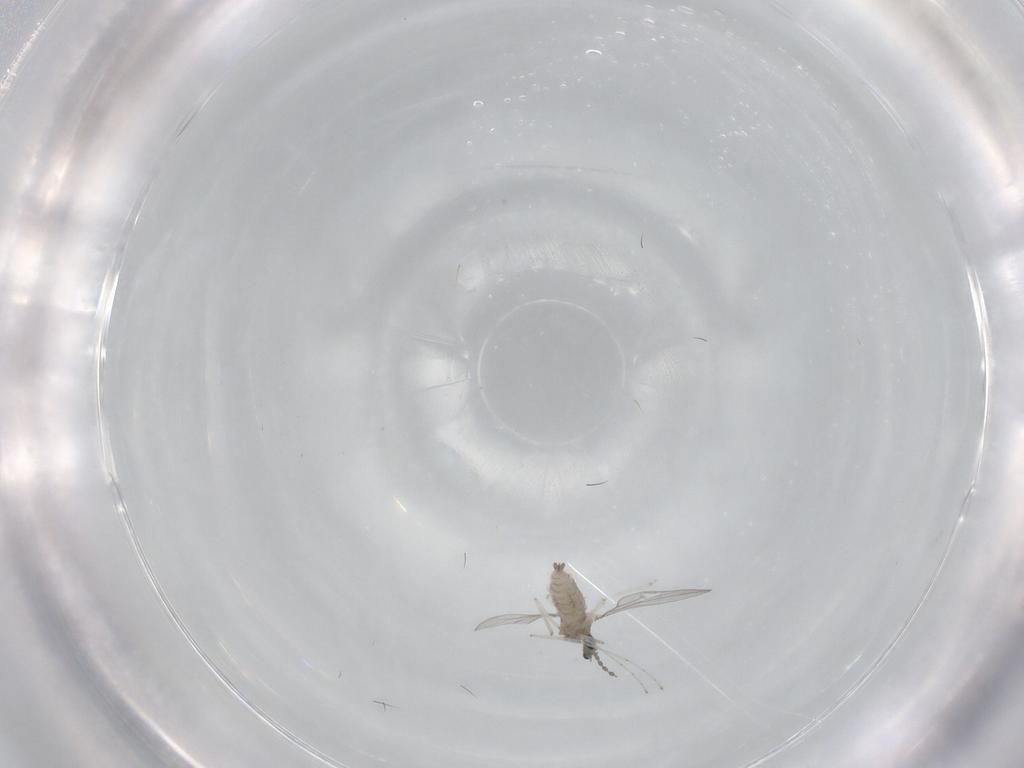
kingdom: Animalia
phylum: Arthropoda
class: Insecta
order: Diptera
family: Cecidomyiidae
